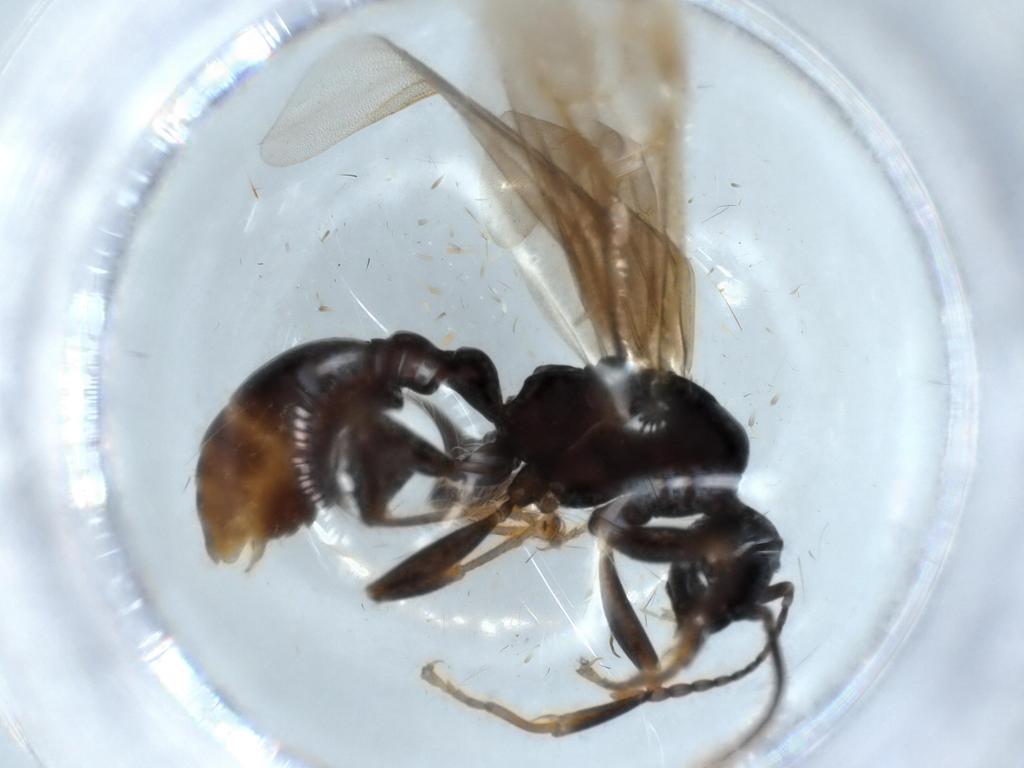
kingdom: Animalia
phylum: Arthropoda
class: Insecta
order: Hymenoptera
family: Formicidae
